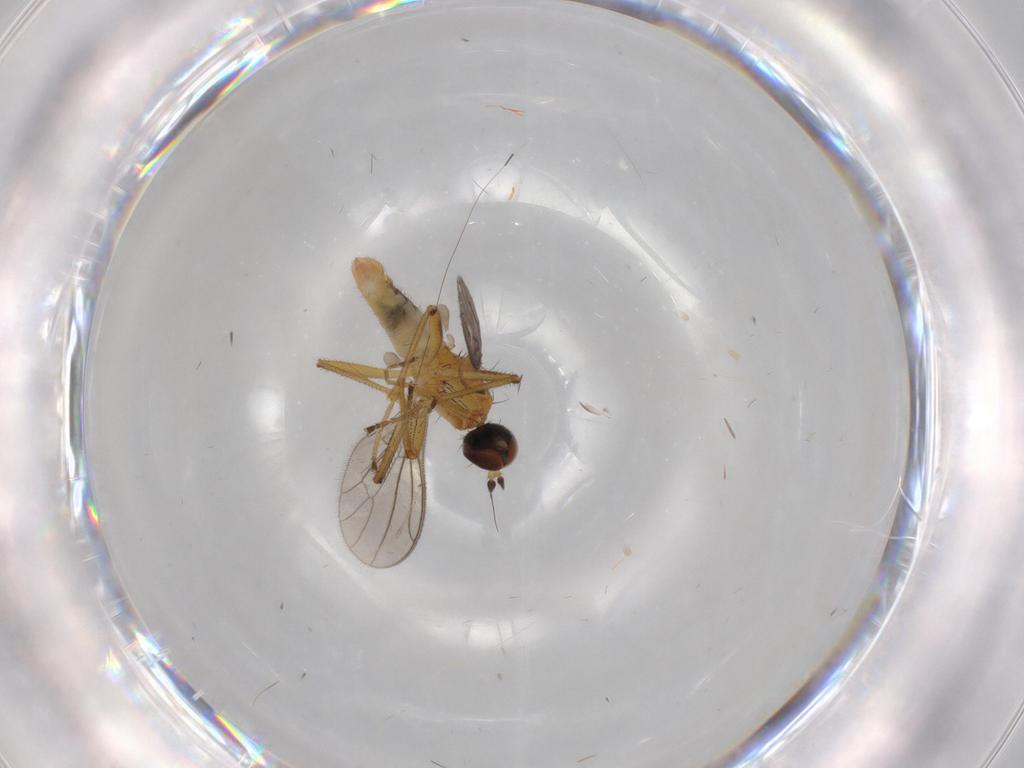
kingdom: Animalia
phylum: Arthropoda
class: Insecta
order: Diptera
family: Empididae
